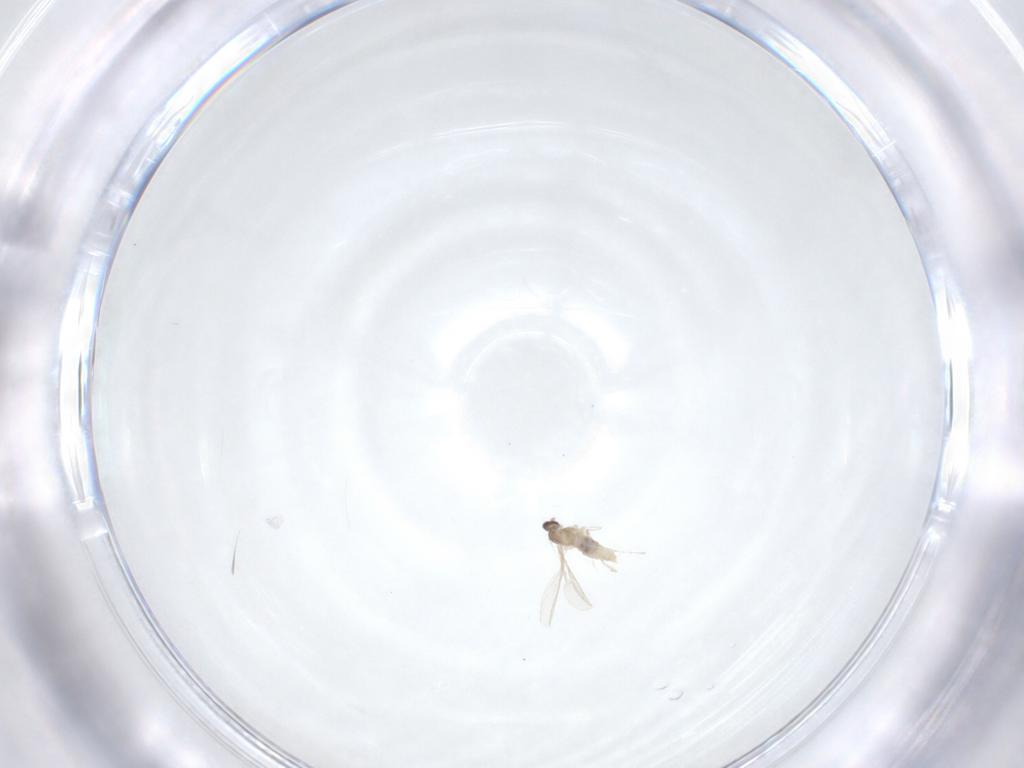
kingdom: Animalia
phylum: Arthropoda
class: Insecta
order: Diptera
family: Cecidomyiidae
